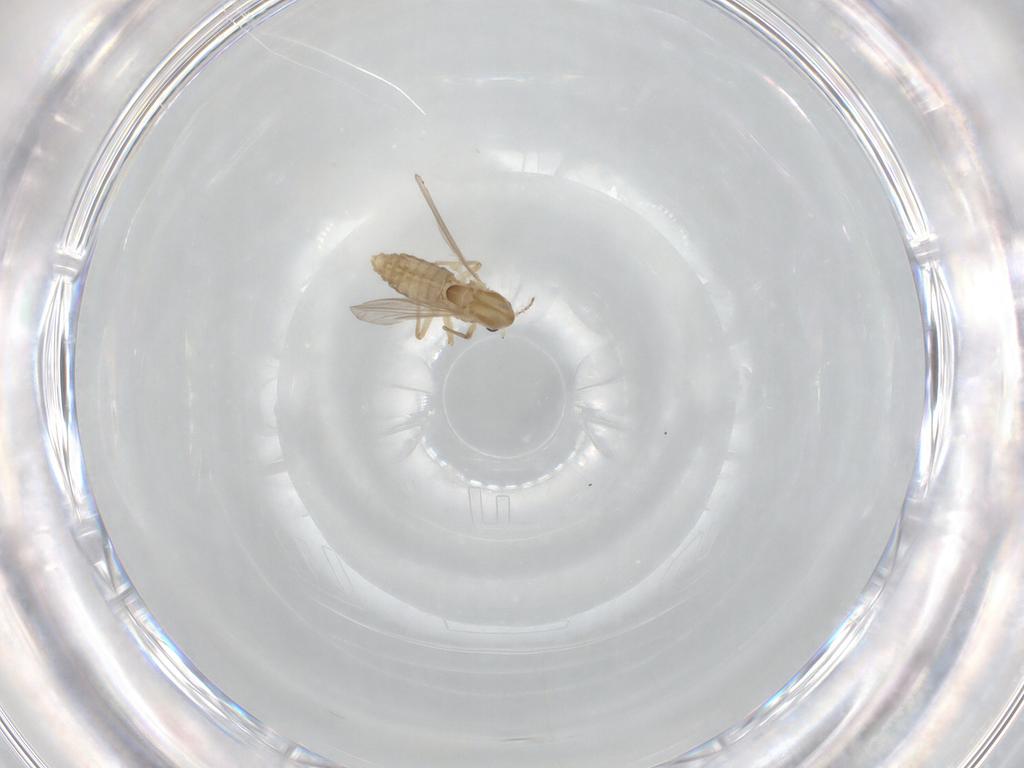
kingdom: Animalia
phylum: Arthropoda
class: Insecta
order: Diptera
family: Chironomidae
